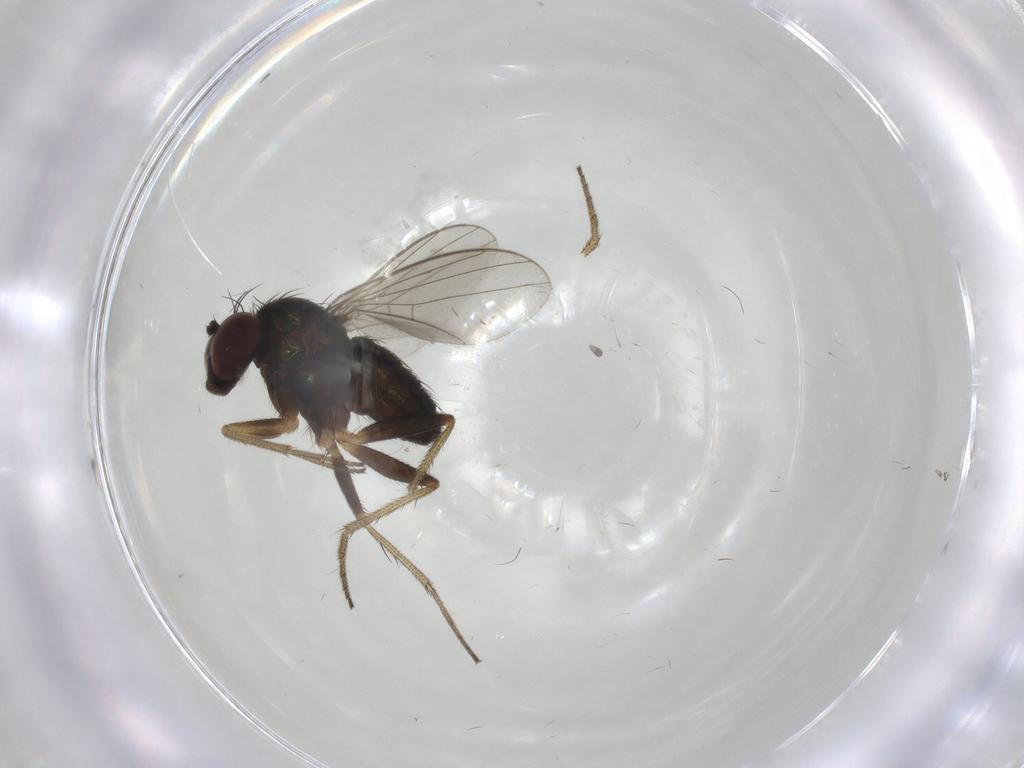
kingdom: Animalia
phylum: Arthropoda
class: Insecta
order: Diptera
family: Dolichopodidae
